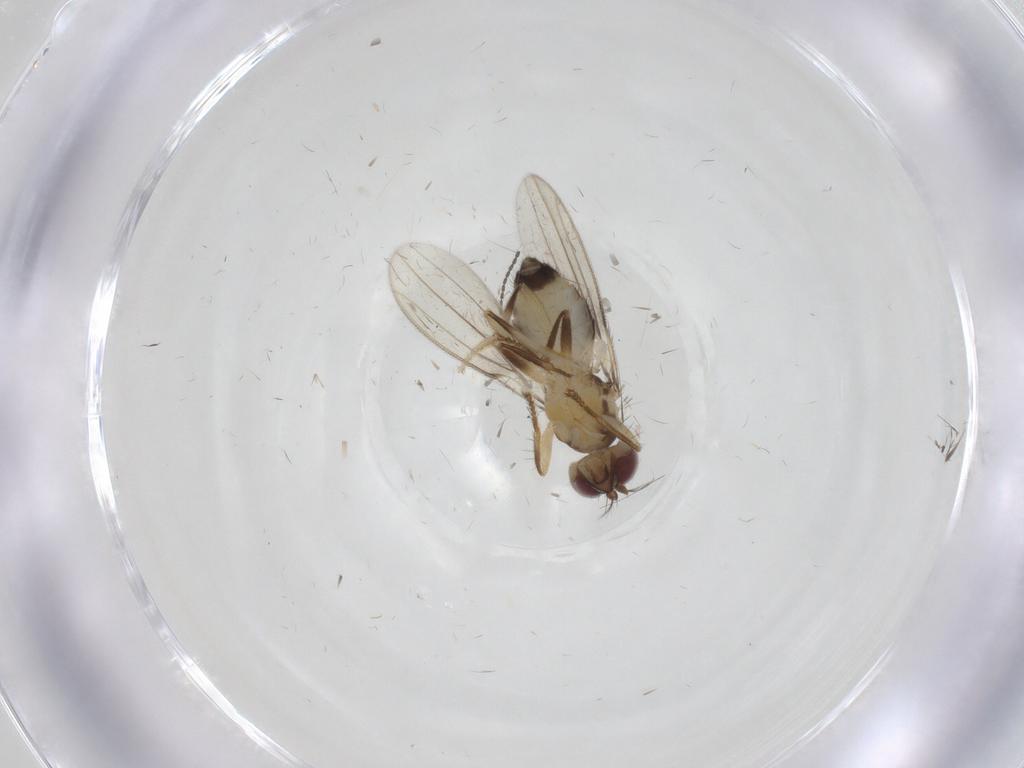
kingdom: Animalia
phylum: Arthropoda
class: Insecta
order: Diptera
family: Periscelididae
